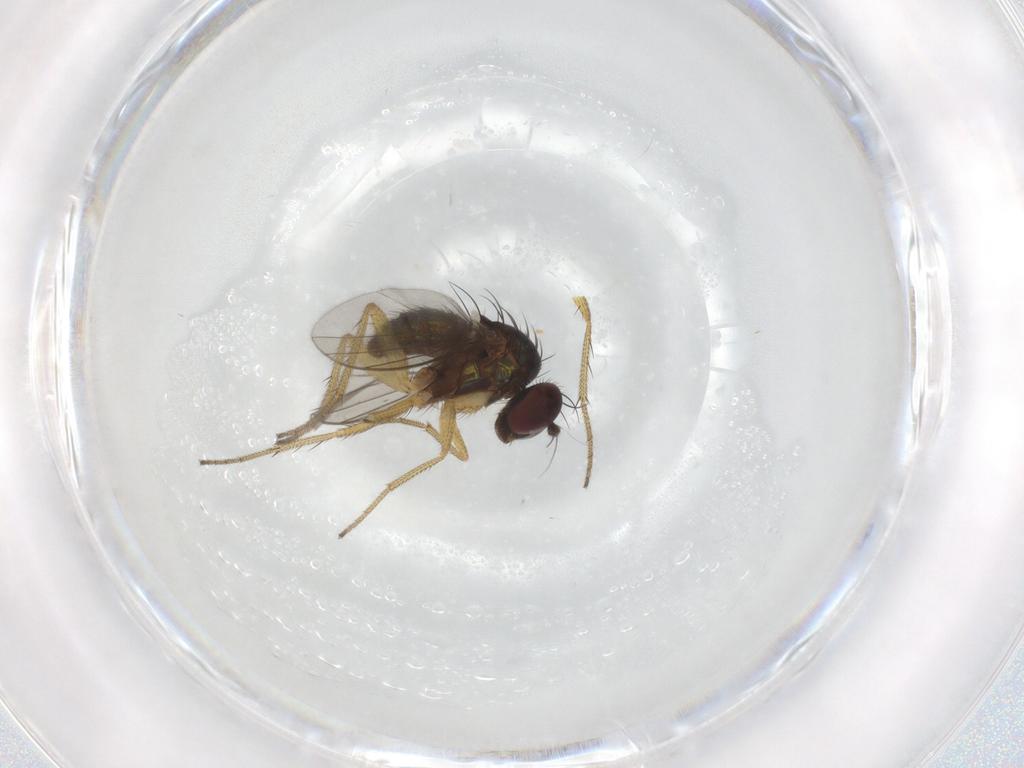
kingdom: Animalia
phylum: Arthropoda
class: Insecta
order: Diptera
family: Dolichopodidae
